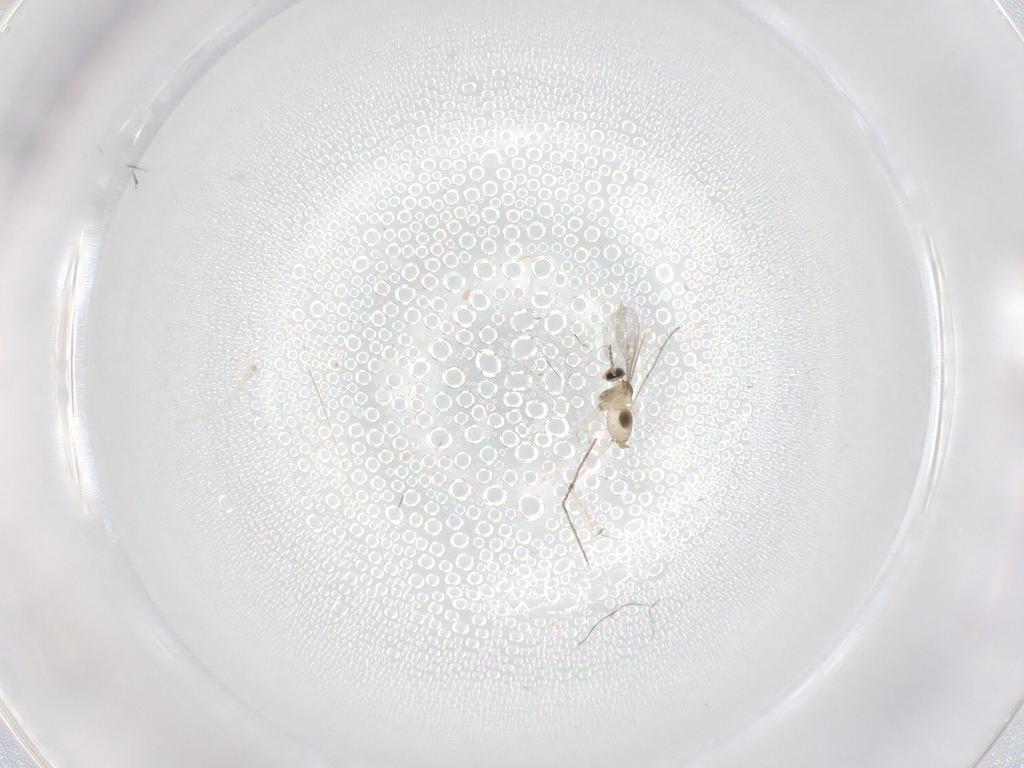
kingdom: Animalia
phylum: Arthropoda
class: Insecta
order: Diptera
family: Cecidomyiidae
